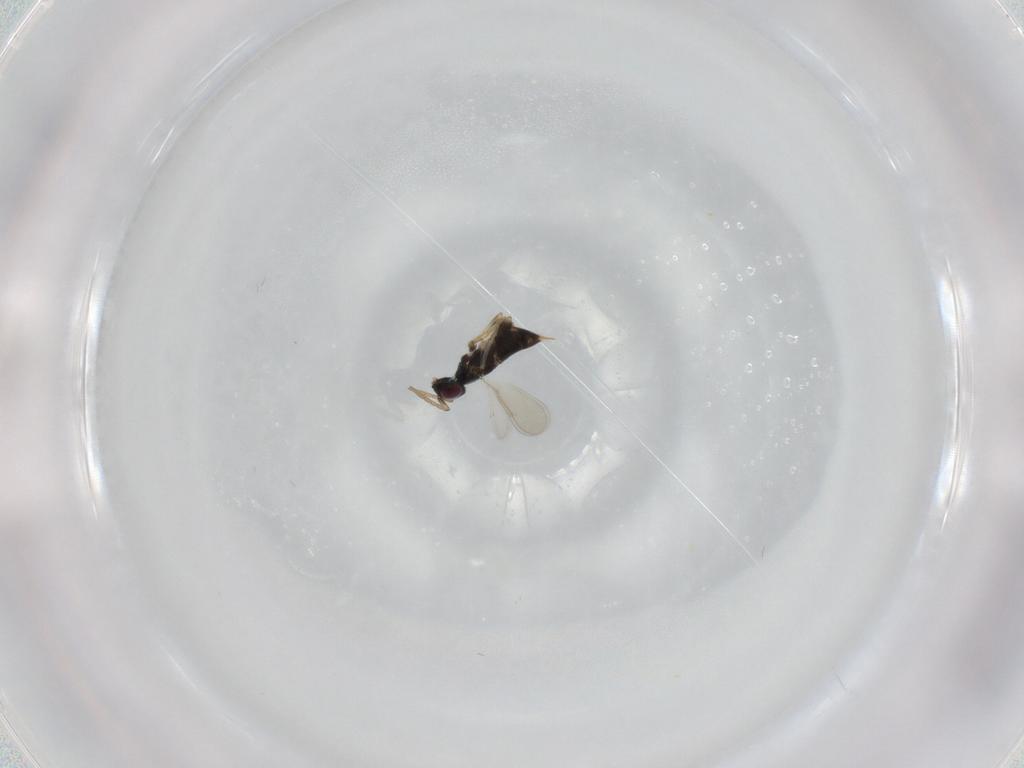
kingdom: Animalia
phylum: Arthropoda
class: Insecta
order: Hymenoptera
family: Aphelinidae
